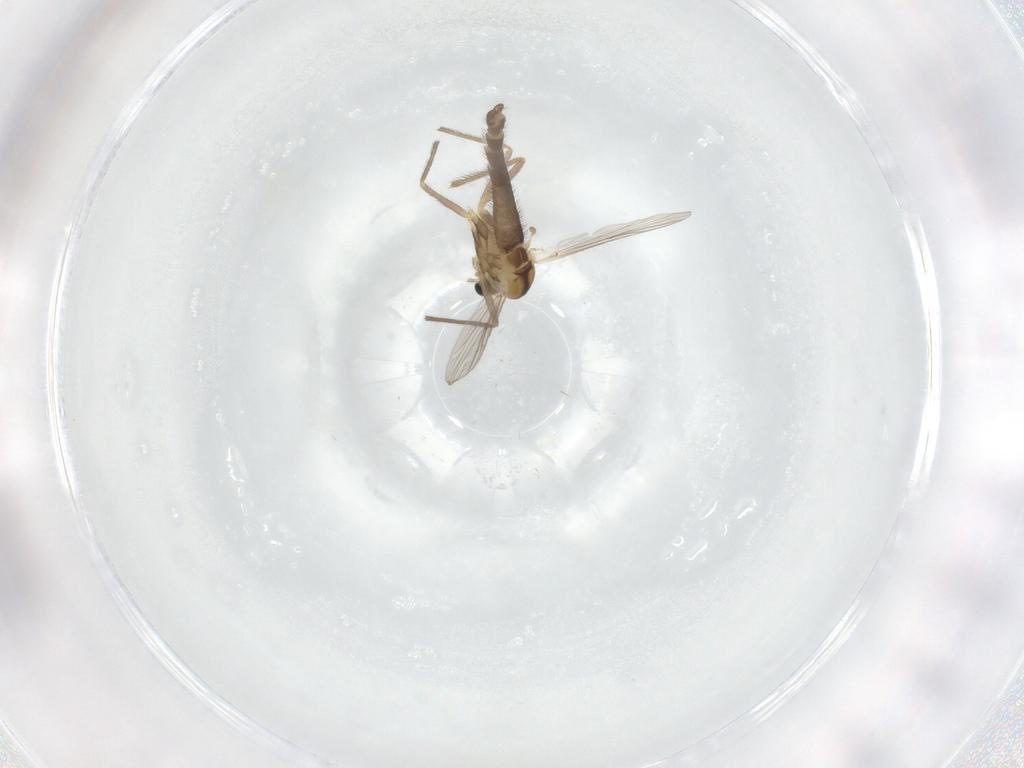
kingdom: Animalia
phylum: Arthropoda
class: Insecta
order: Diptera
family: Chironomidae
